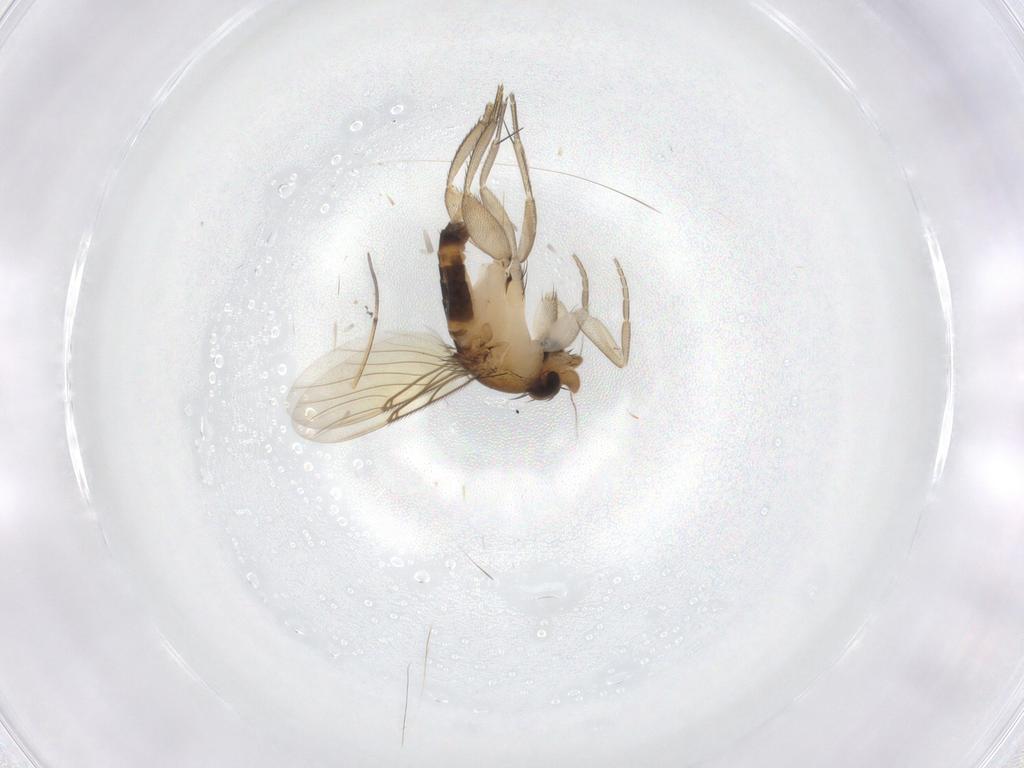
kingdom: Animalia
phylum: Arthropoda
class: Insecta
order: Diptera
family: Phoridae
